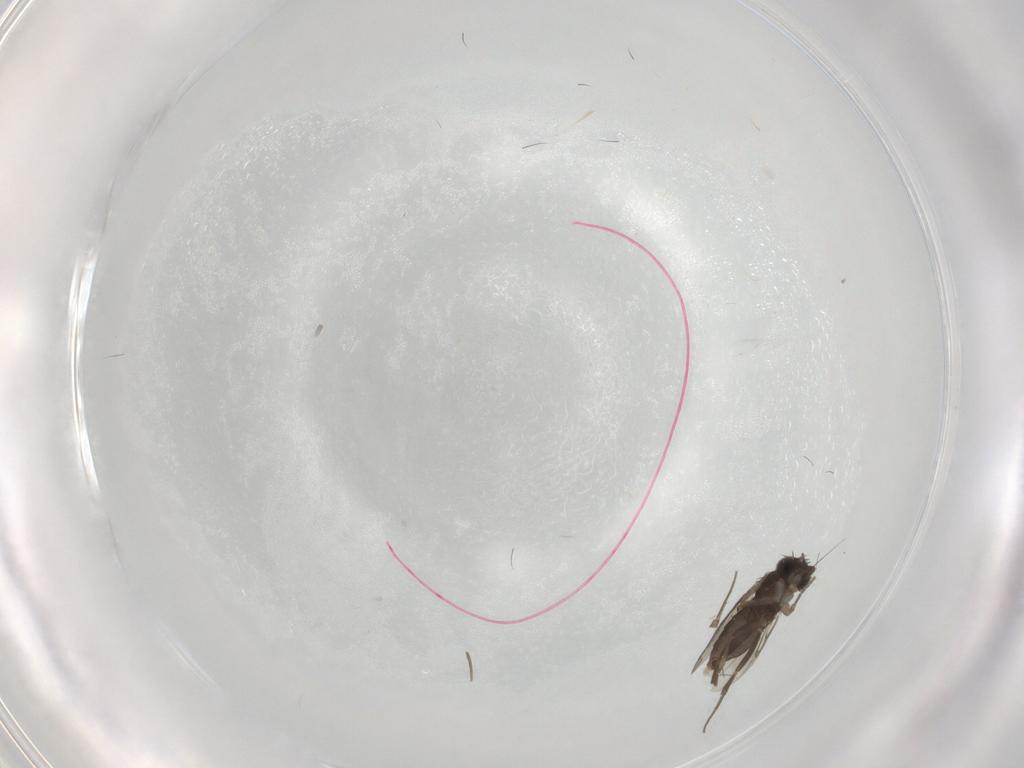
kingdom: Animalia
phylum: Arthropoda
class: Insecta
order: Diptera
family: Phoridae
